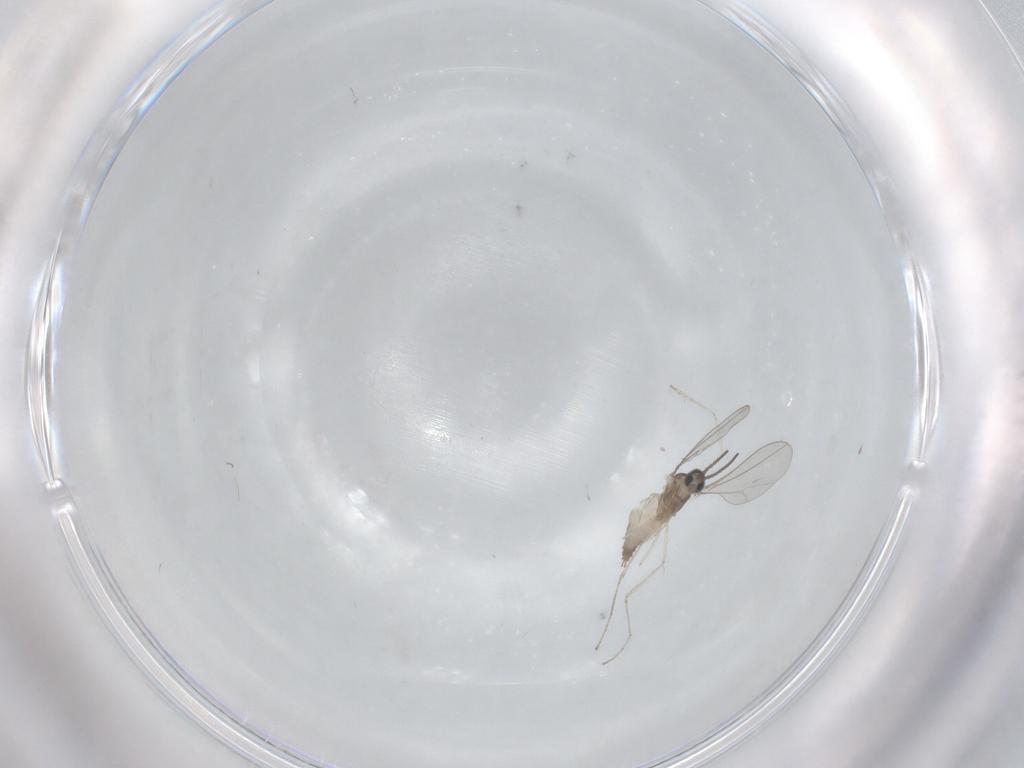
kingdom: Animalia
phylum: Arthropoda
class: Insecta
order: Diptera
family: Cecidomyiidae
